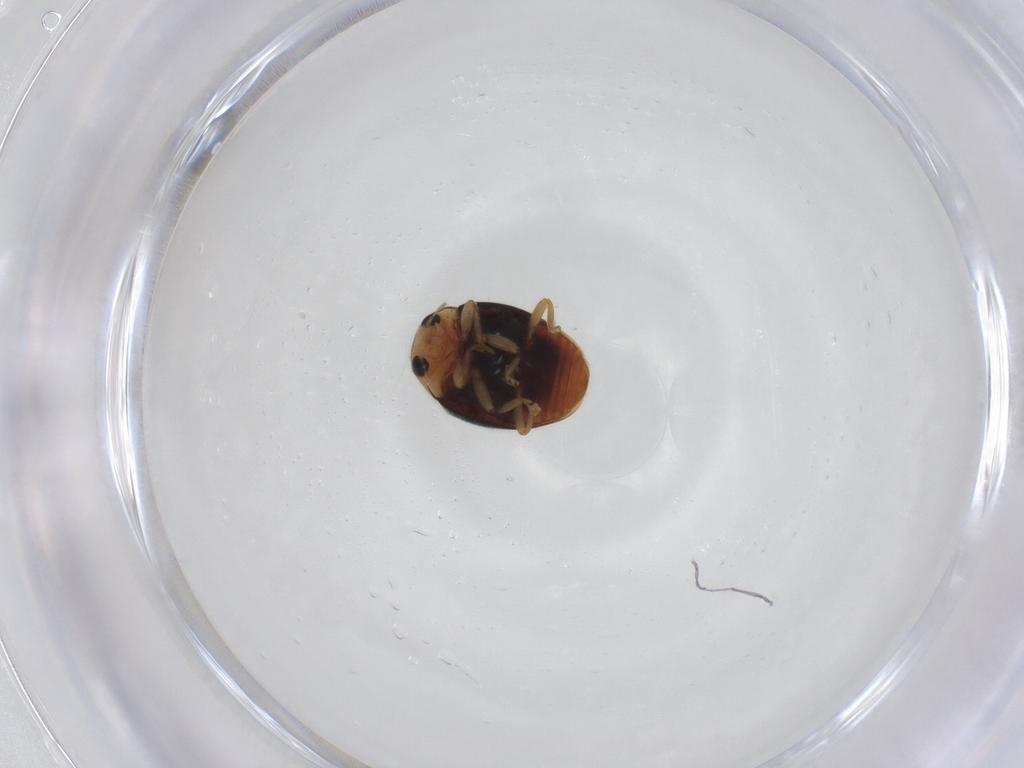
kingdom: Animalia
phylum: Arthropoda
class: Insecta
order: Coleoptera
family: Coccinellidae
